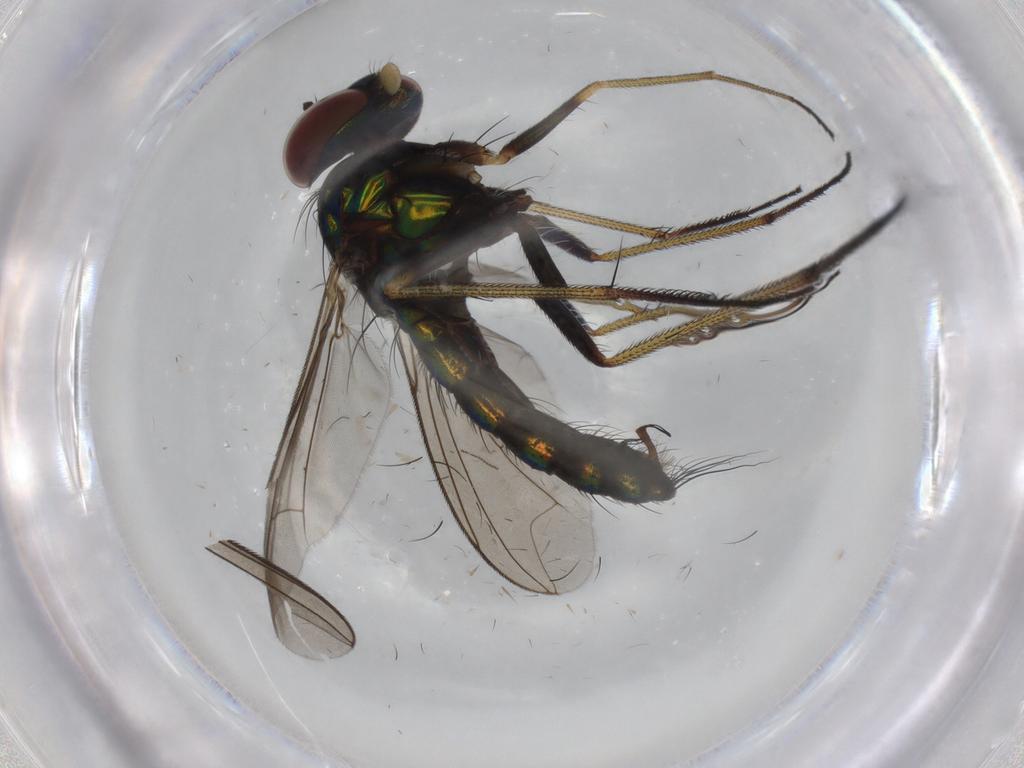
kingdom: Animalia
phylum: Arthropoda
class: Insecta
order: Diptera
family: Dolichopodidae
